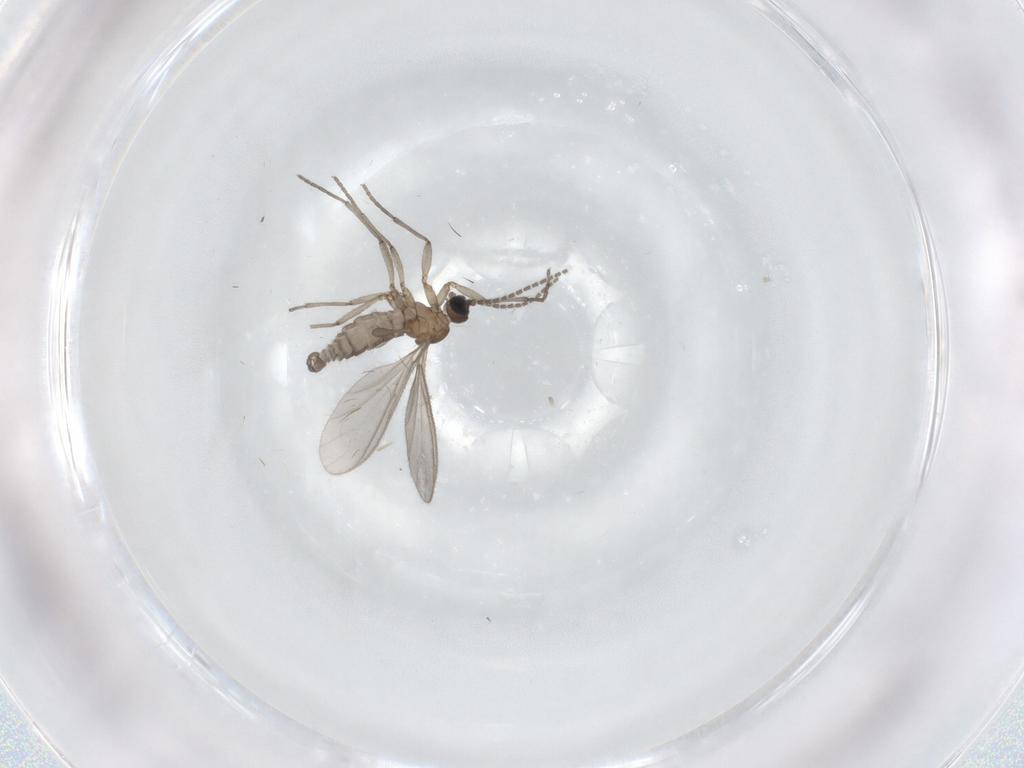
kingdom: Animalia
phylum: Arthropoda
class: Insecta
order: Diptera
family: Sciaridae
